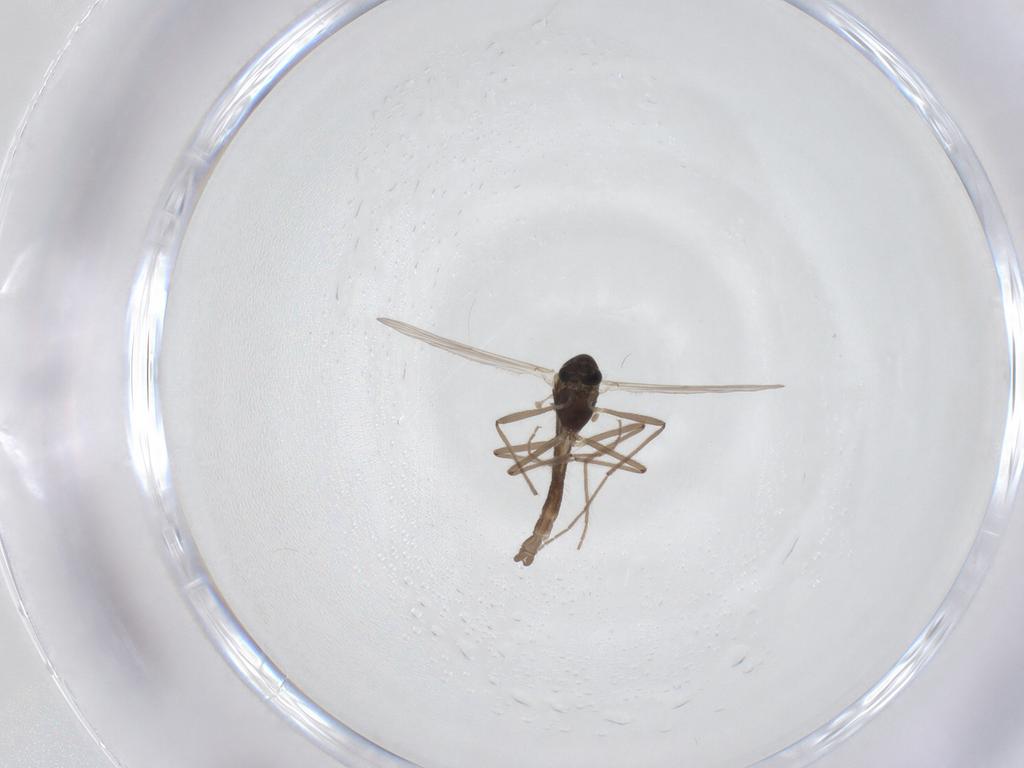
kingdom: Animalia
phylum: Arthropoda
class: Insecta
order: Diptera
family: Chironomidae
